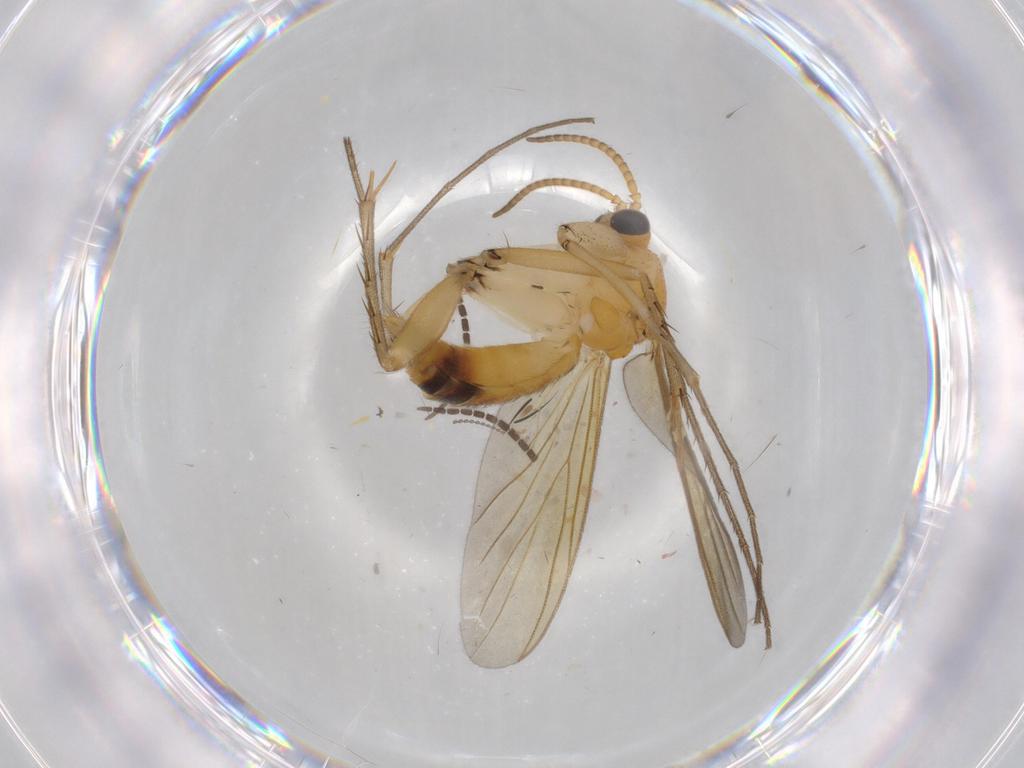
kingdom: Animalia
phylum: Arthropoda
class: Insecta
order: Diptera
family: Sciaridae
